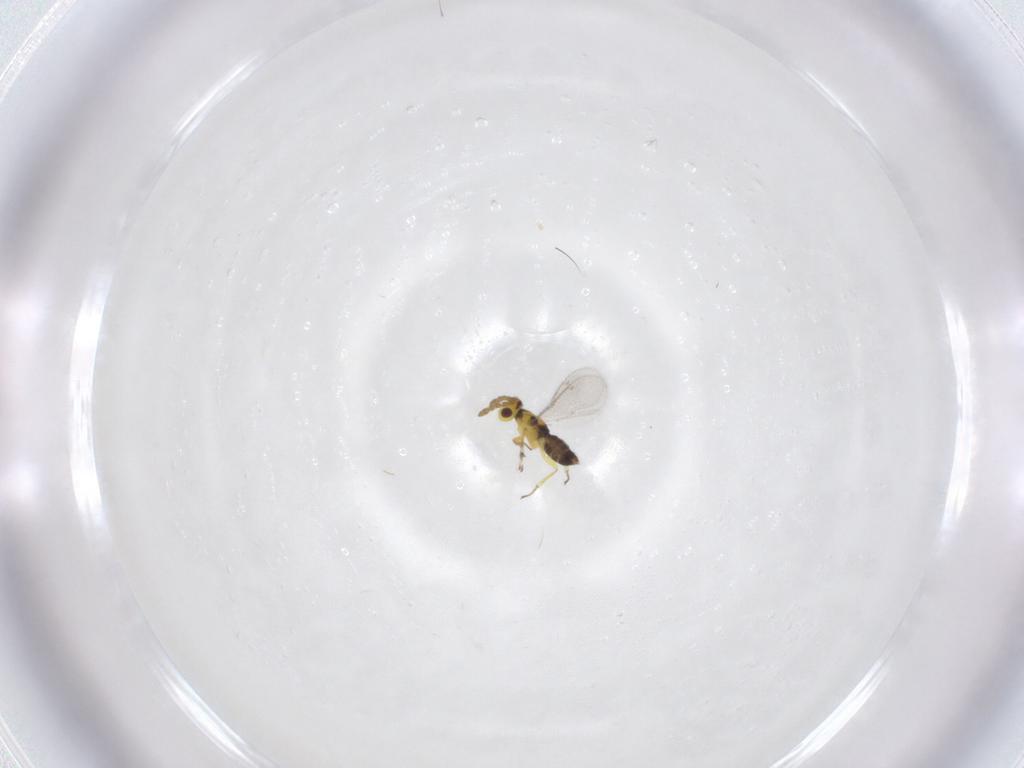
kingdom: Animalia
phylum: Arthropoda
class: Insecta
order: Hymenoptera
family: Aphelinidae
